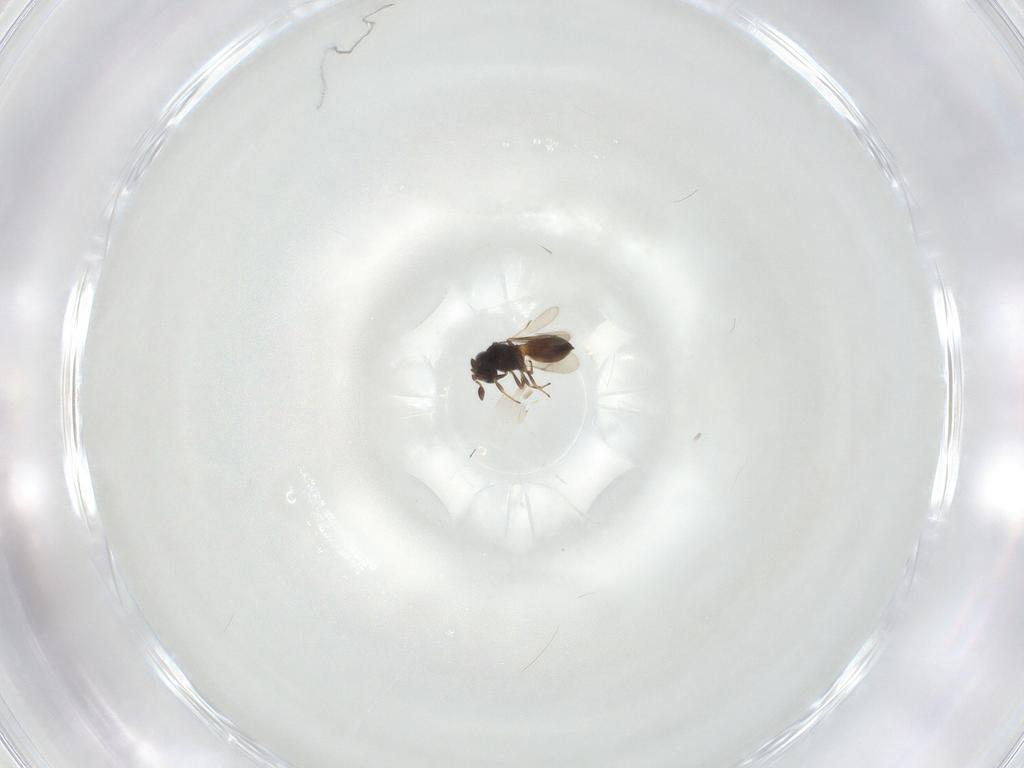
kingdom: Animalia
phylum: Arthropoda
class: Insecta
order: Hymenoptera
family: Scelionidae
